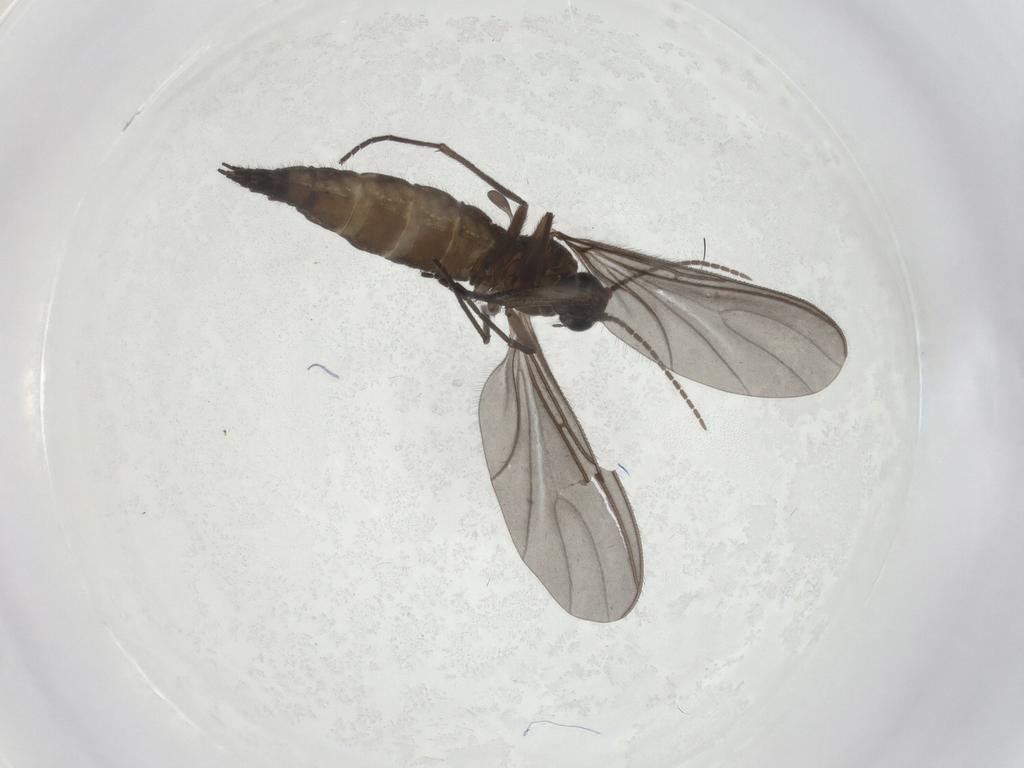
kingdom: Animalia
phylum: Arthropoda
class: Insecta
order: Diptera
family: Sciaridae
